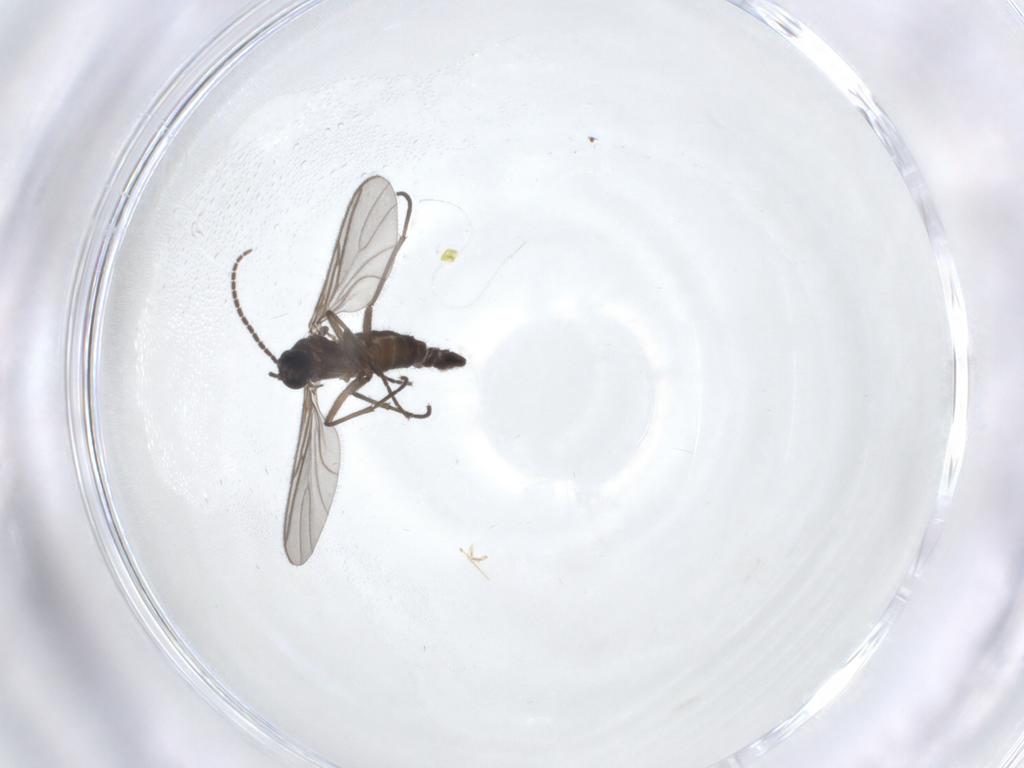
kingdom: Animalia
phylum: Arthropoda
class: Insecta
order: Diptera
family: Sciaridae
